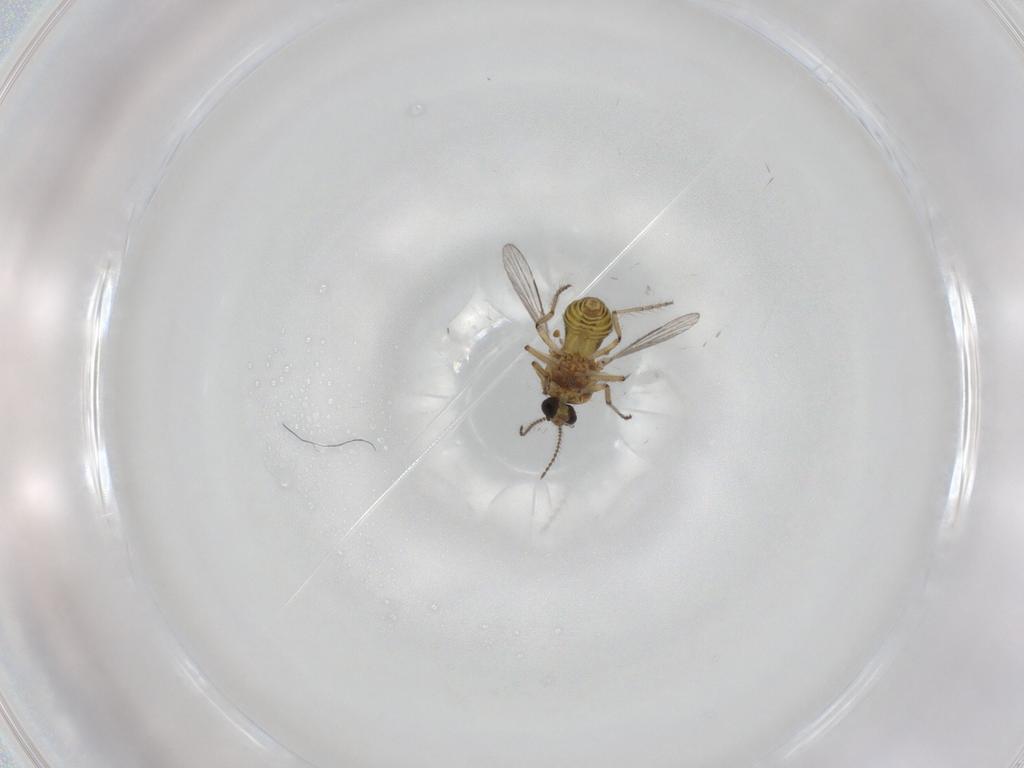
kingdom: Animalia
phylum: Arthropoda
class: Insecta
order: Diptera
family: Ceratopogonidae
